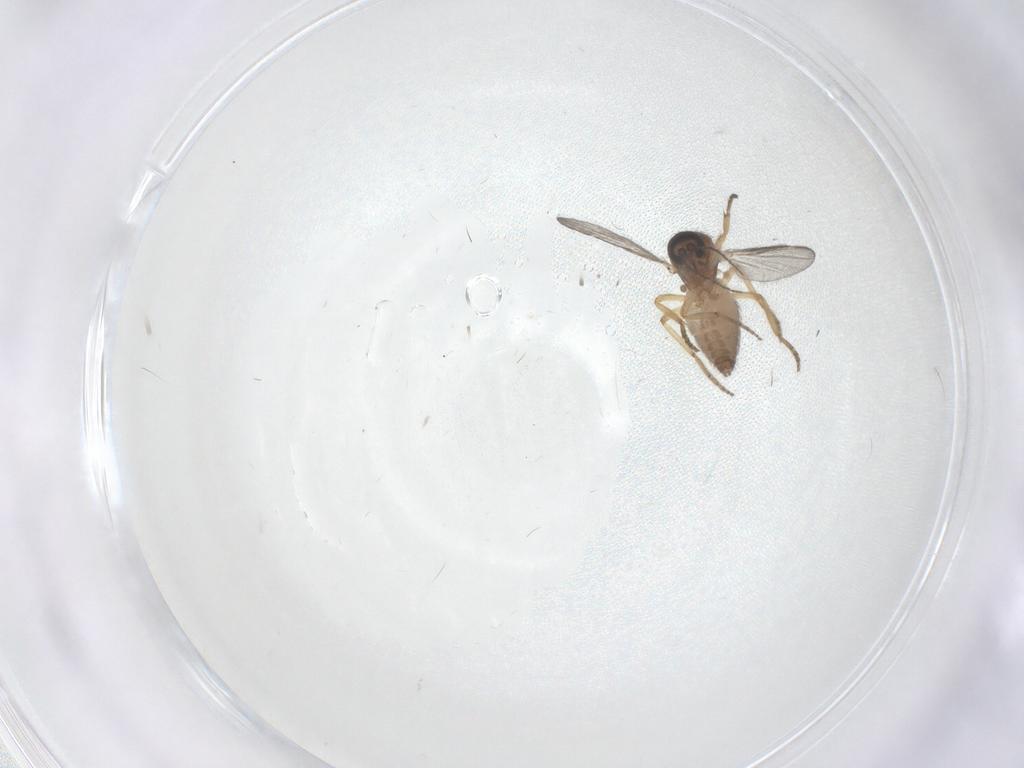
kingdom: Animalia
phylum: Arthropoda
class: Insecta
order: Diptera
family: Ceratopogonidae
